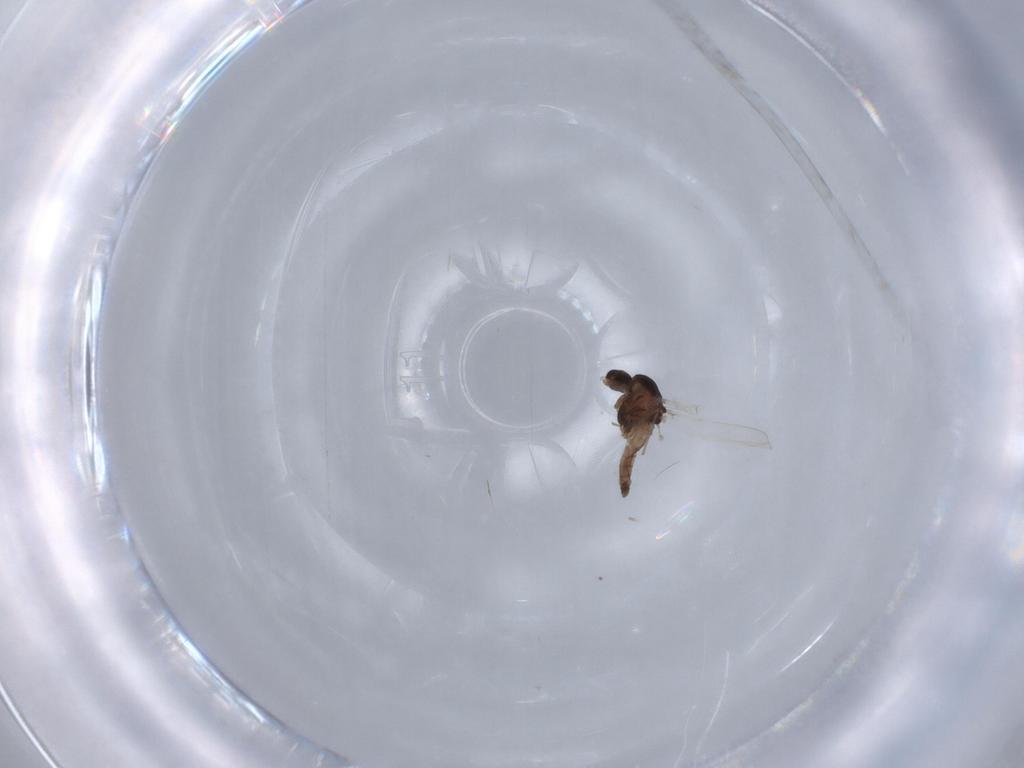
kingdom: Animalia
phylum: Arthropoda
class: Insecta
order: Diptera
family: Chironomidae
